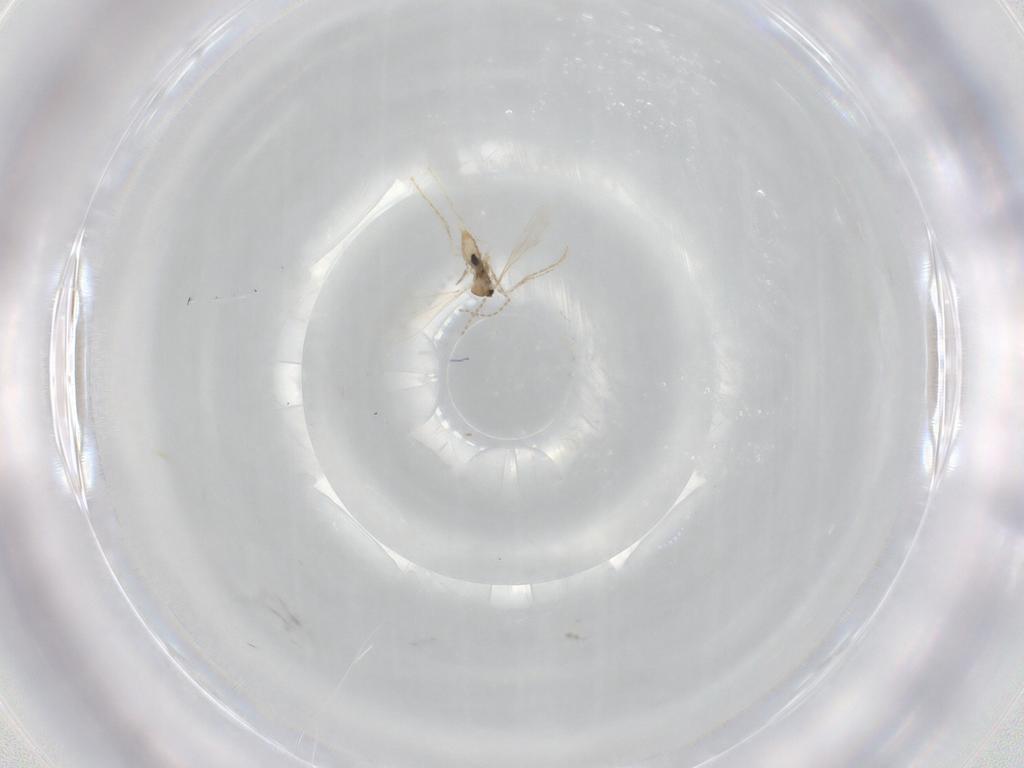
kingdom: Animalia
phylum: Arthropoda
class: Insecta
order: Diptera
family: Cecidomyiidae
